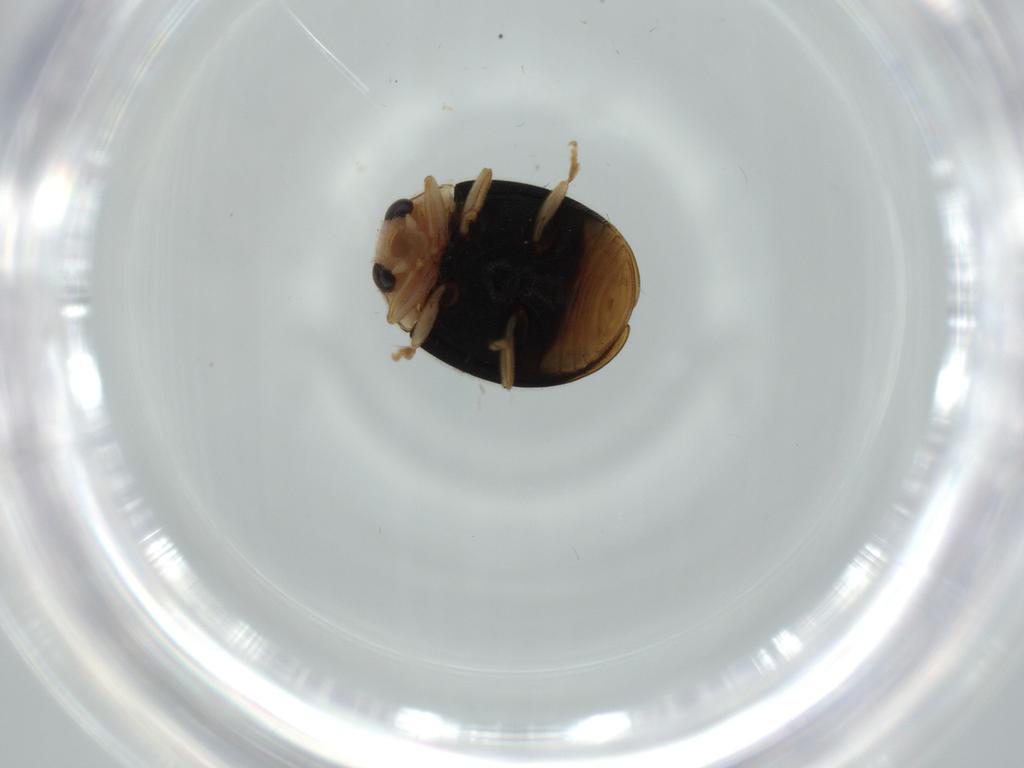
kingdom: Animalia
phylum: Arthropoda
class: Insecta
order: Coleoptera
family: Coccinellidae
